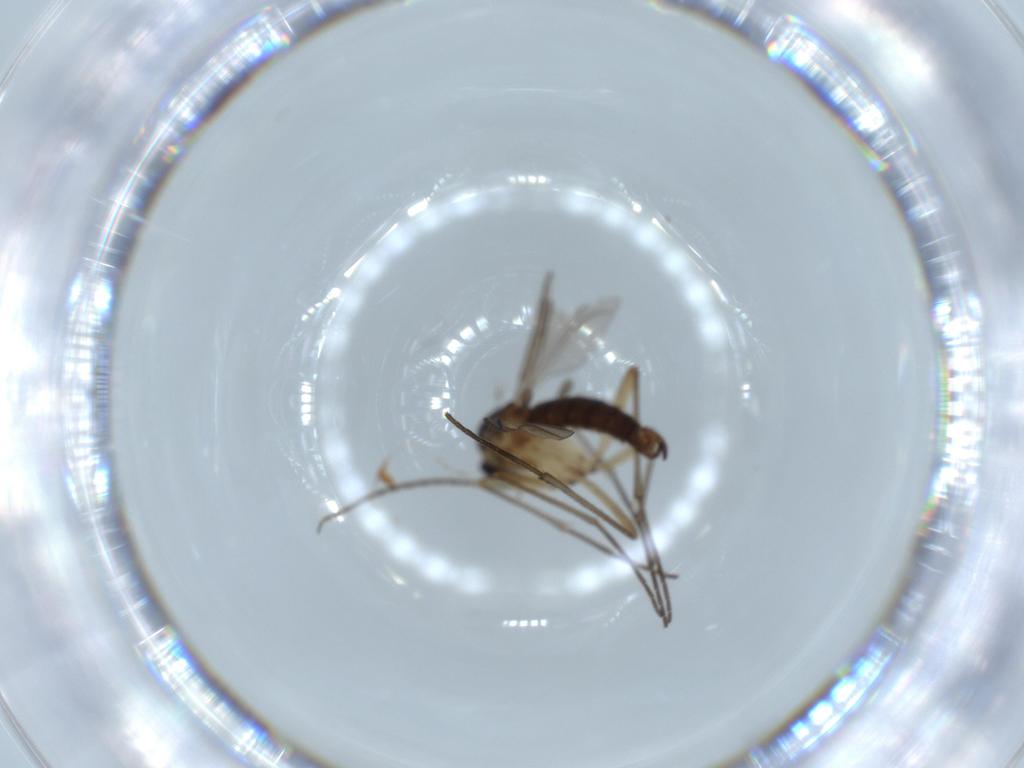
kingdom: Animalia
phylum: Arthropoda
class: Insecta
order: Diptera
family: Sciaridae
